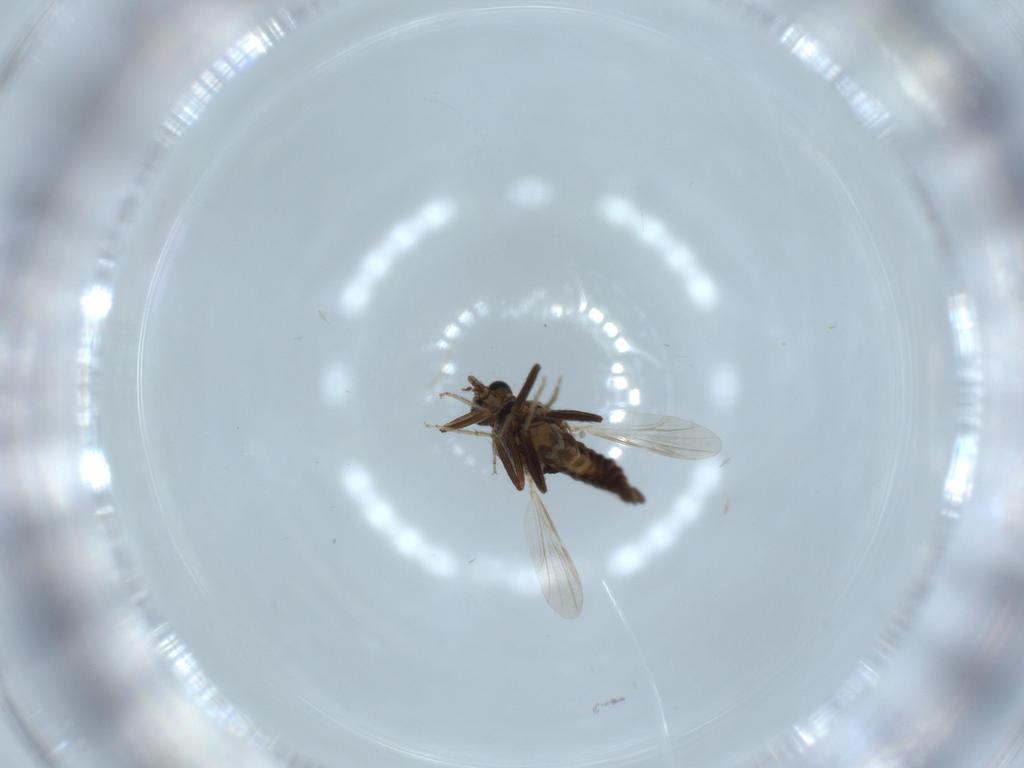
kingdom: Animalia
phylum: Arthropoda
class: Insecta
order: Diptera
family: Ceratopogonidae
